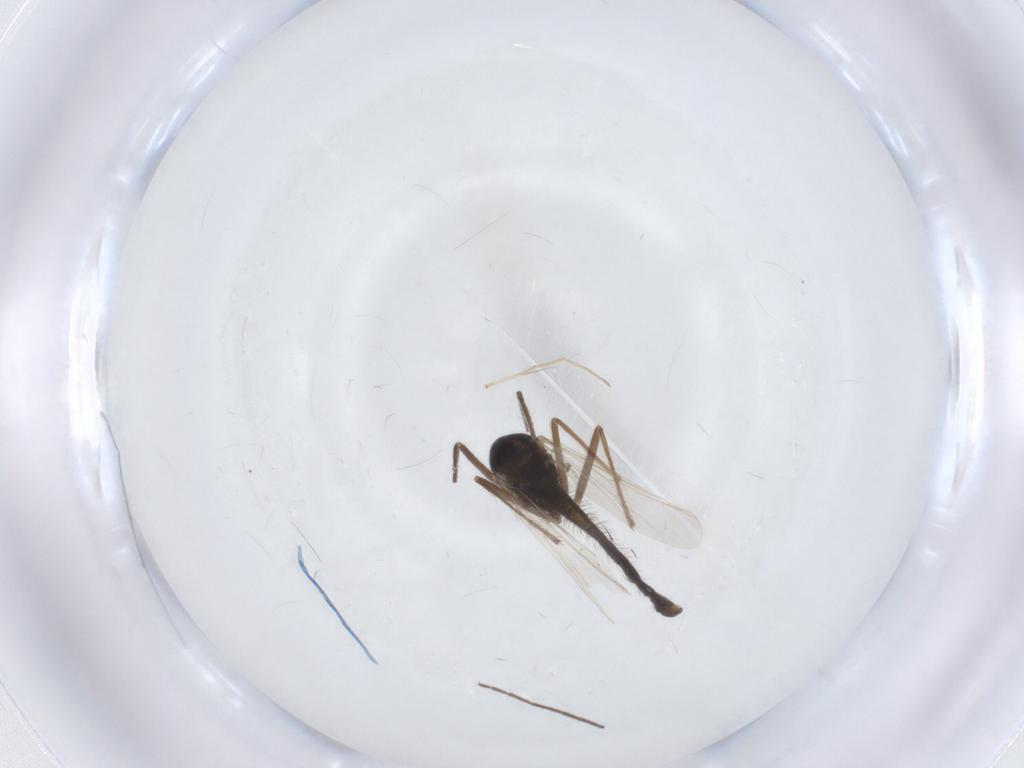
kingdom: Animalia
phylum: Arthropoda
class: Insecta
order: Diptera
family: Chironomidae
